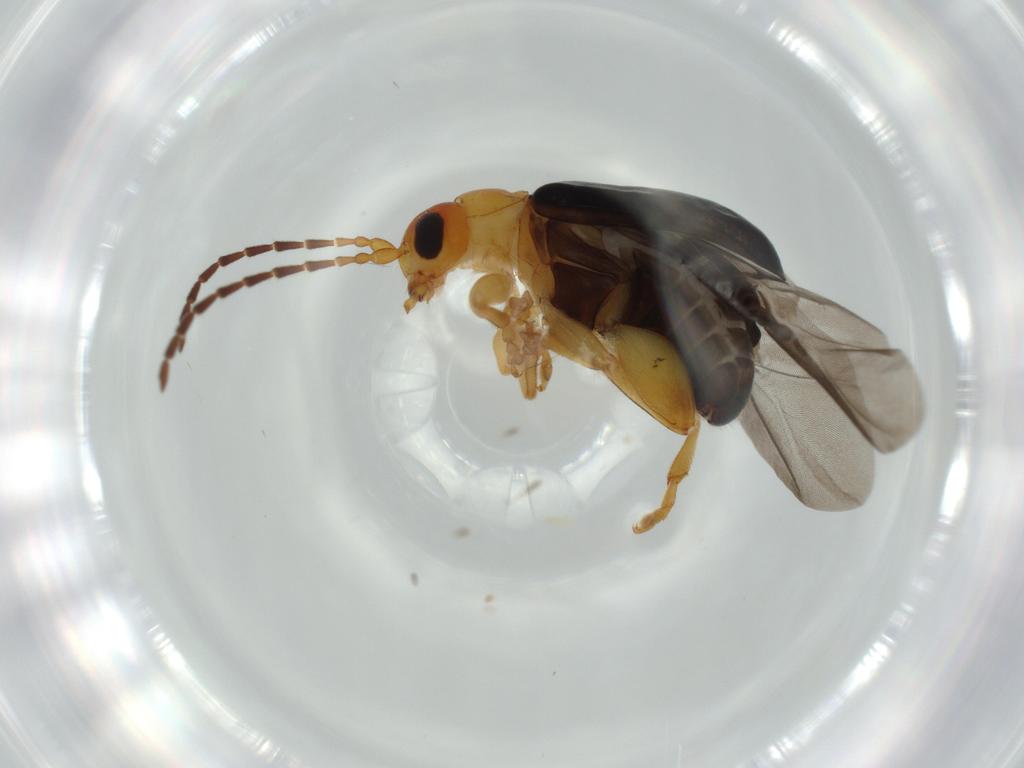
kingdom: Animalia
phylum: Arthropoda
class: Insecta
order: Coleoptera
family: Chrysomelidae
